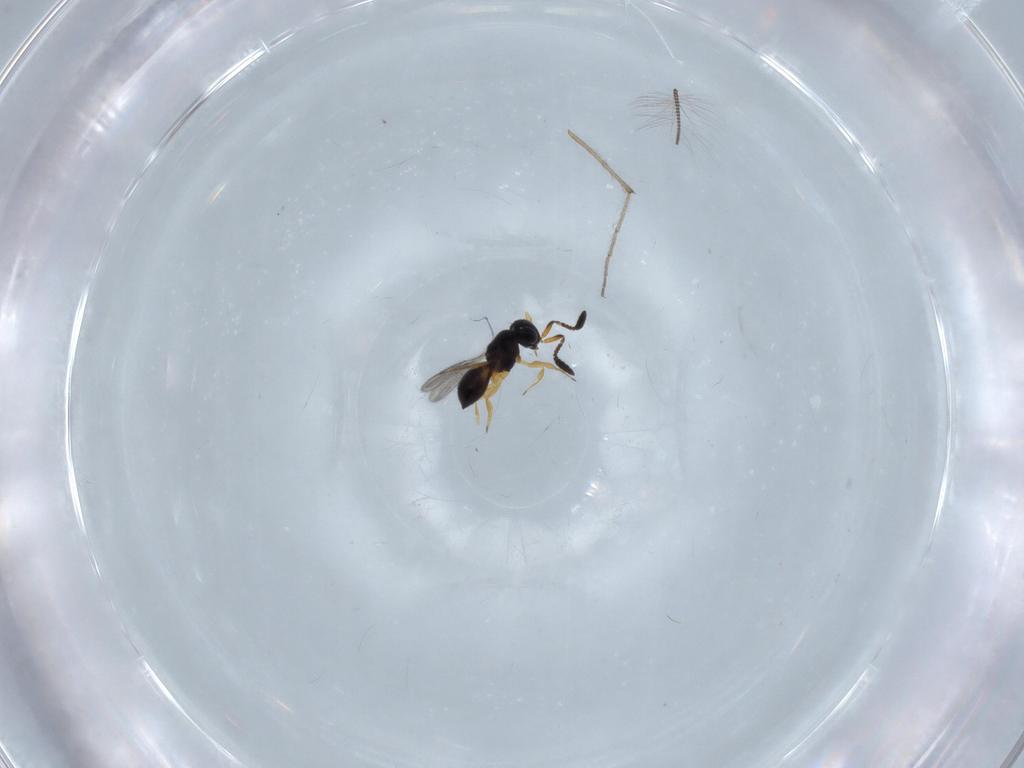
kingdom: Animalia
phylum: Arthropoda
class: Insecta
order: Hymenoptera
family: Scelionidae
